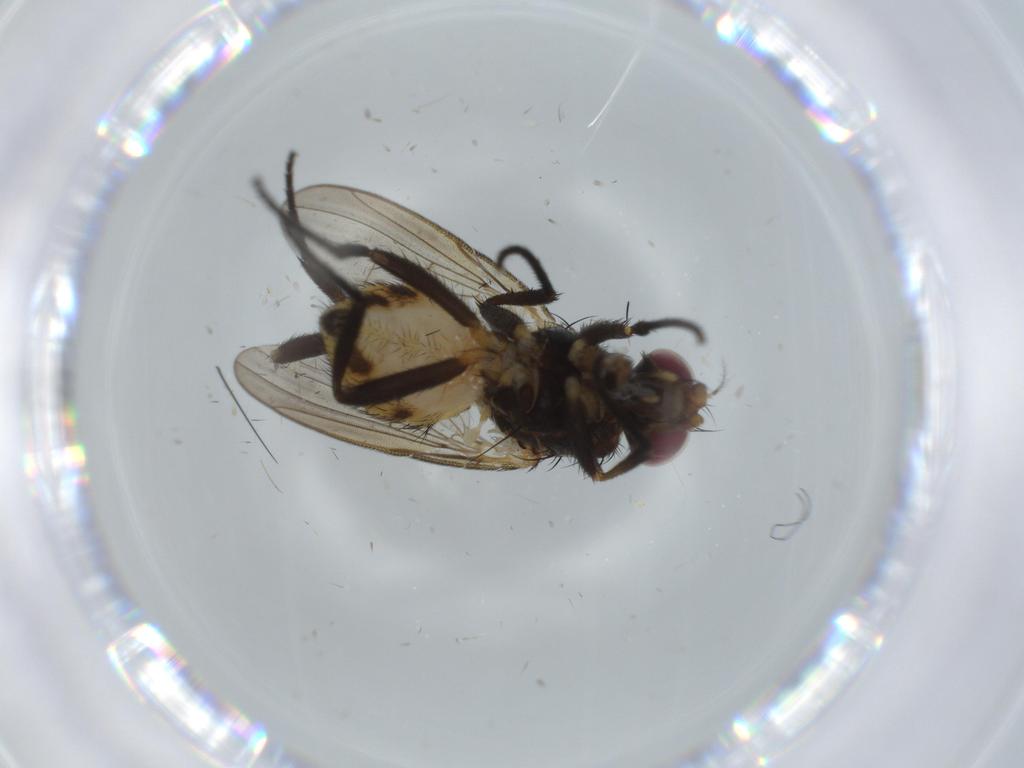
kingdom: Animalia
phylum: Arthropoda
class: Insecta
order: Diptera
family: Anthomyiidae
